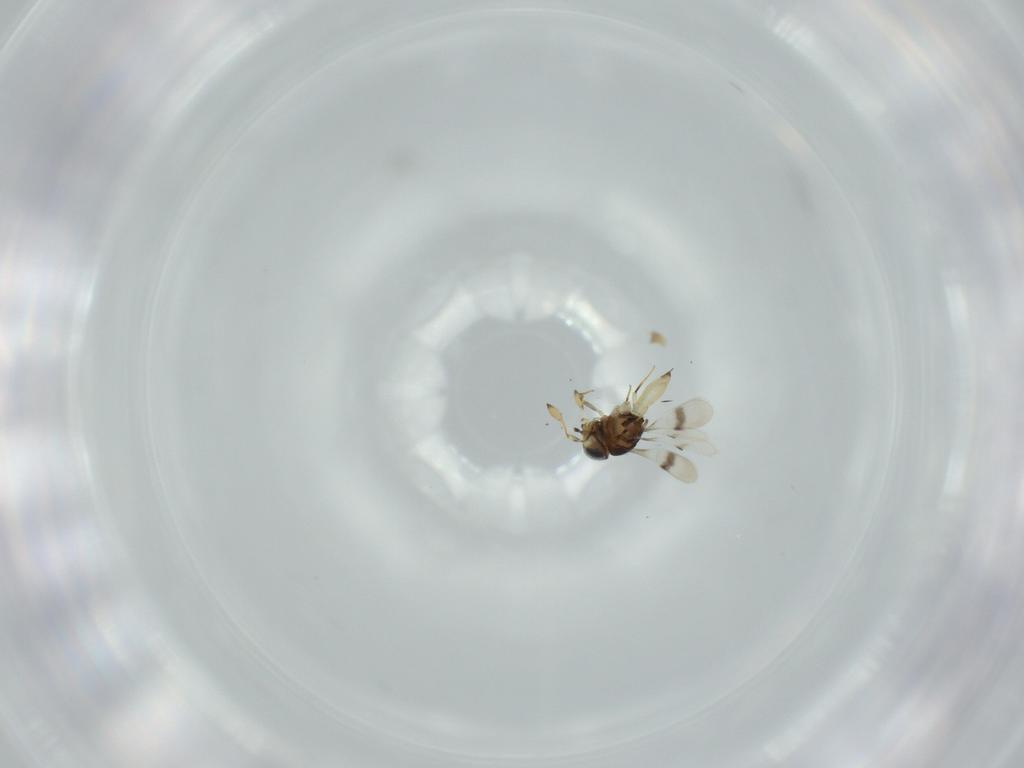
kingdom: Animalia
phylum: Arthropoda
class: Insecta
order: Hymenoptera
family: Scelionidae
